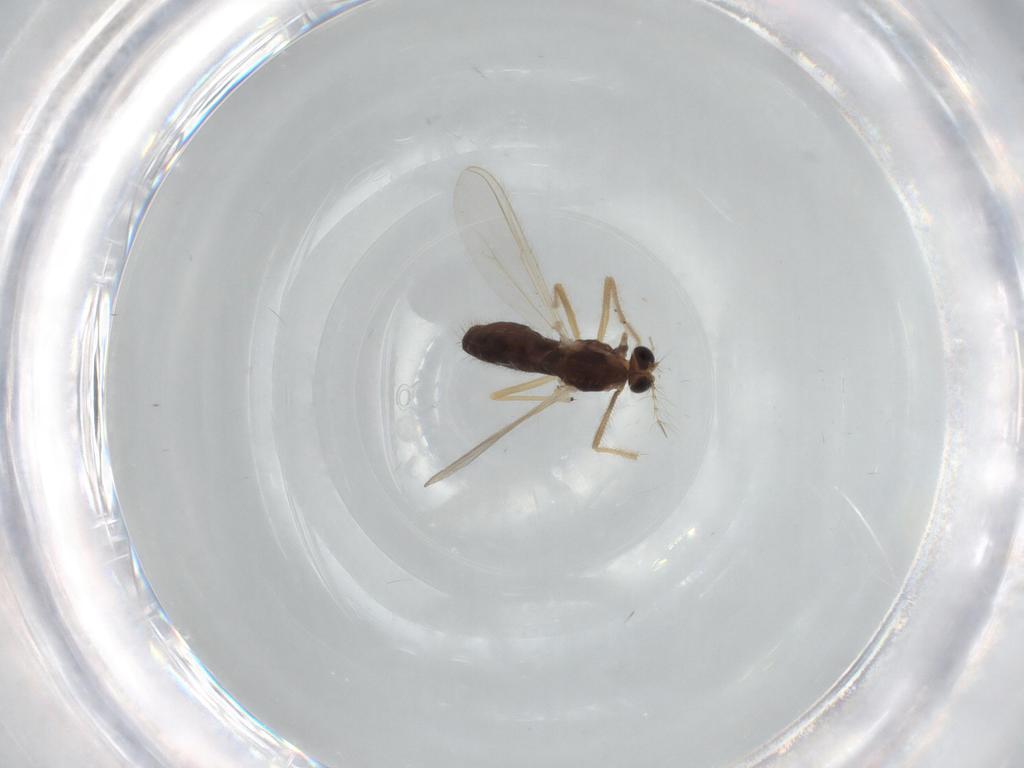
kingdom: Animalia
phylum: Arthropoda
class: Insecta
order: Diptera
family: Chironomidae
